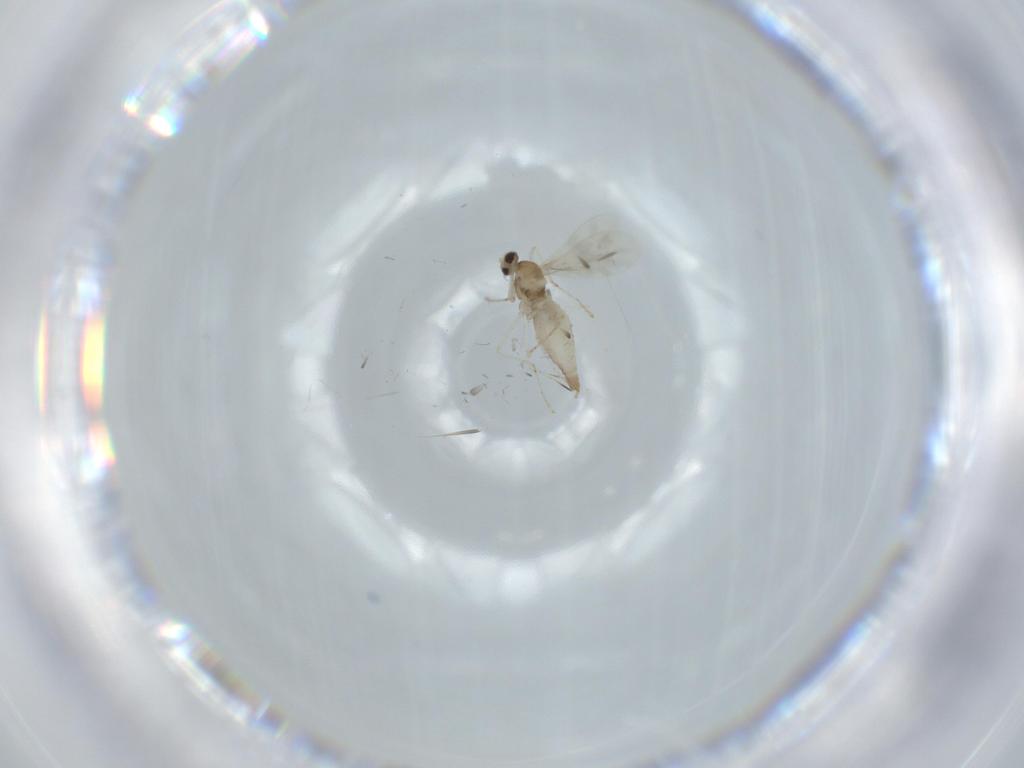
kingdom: Animalia
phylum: Arthropoda
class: Insecta
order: Diptera
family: Cecidomyiidae
